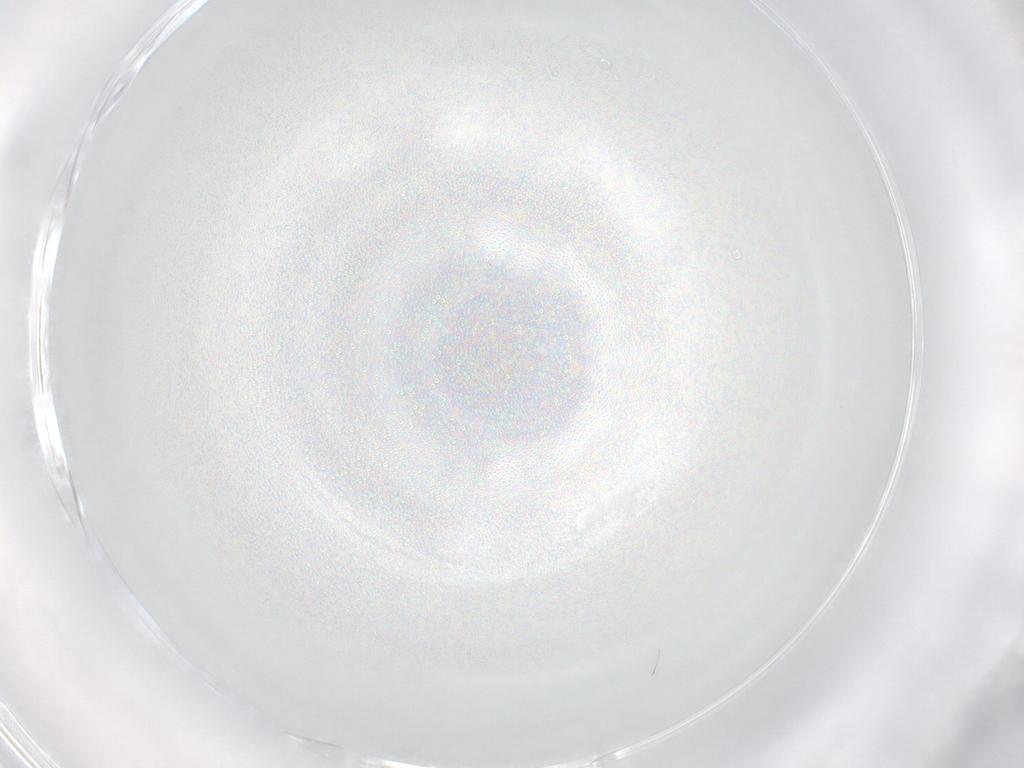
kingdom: Animalia
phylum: Arthropoda
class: Insecta
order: Diptera
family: Cecidomyiidae
